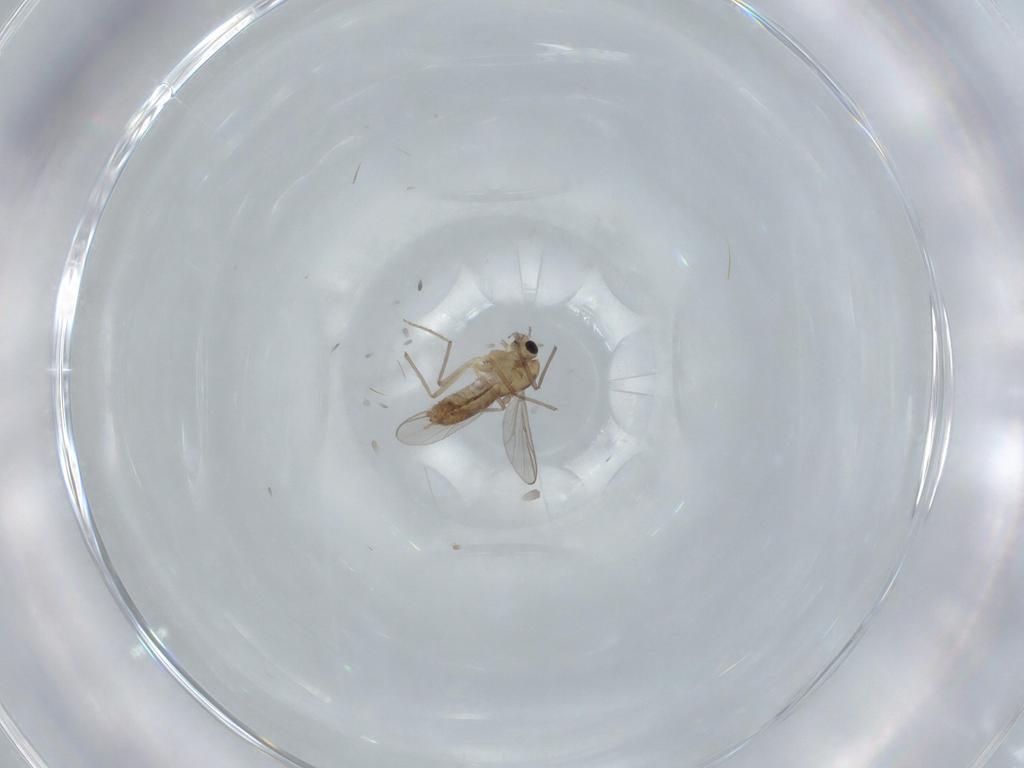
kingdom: Animalia
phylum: Arthropoda
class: Insecta
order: Diptera
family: Chironomidae
